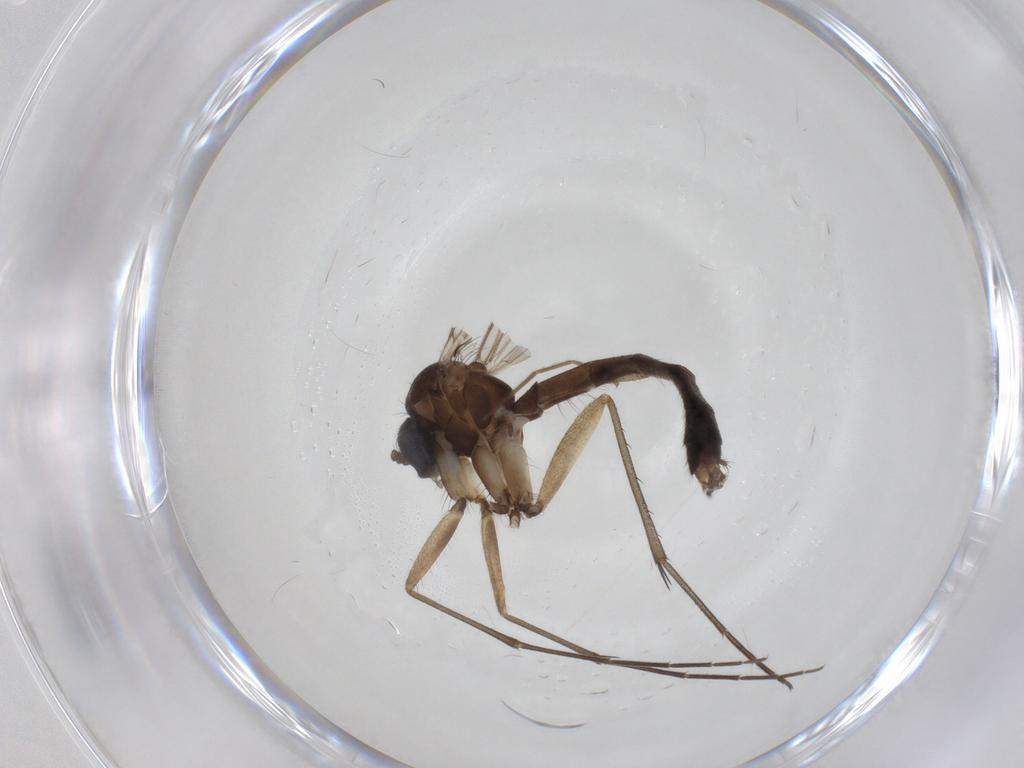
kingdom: Animalia
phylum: Arthropoda
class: Insecta
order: Diptera
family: Mycetophilidae
